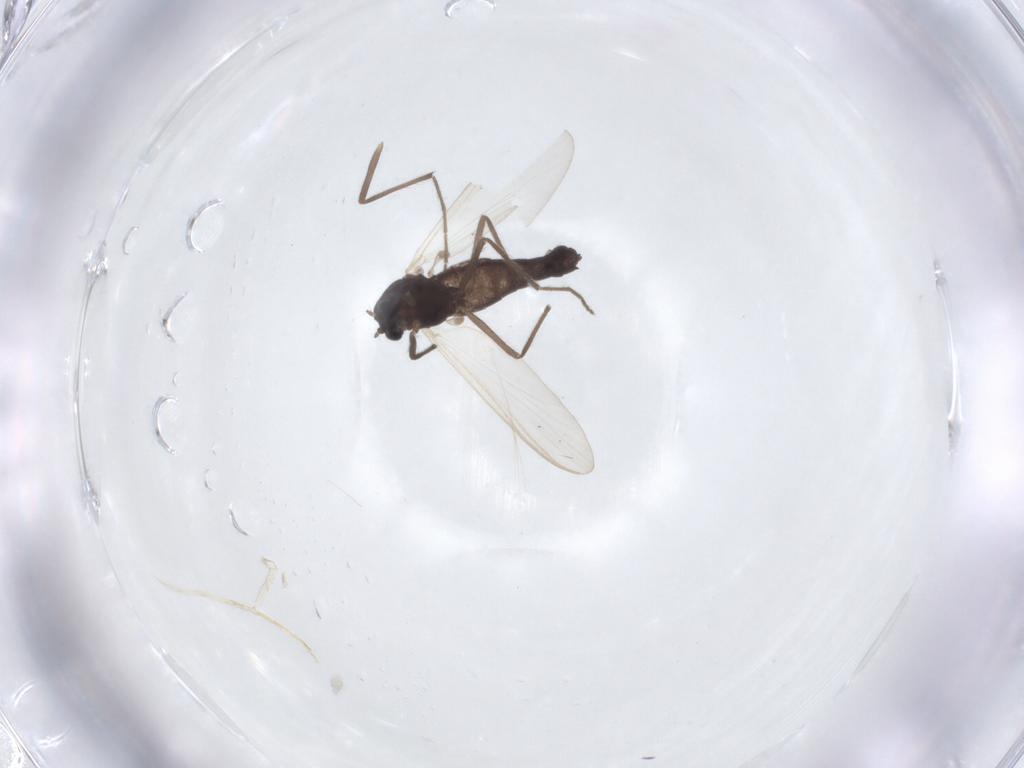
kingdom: Animalia
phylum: Arthropoda
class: Insecta
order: Diptera
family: Chironomidae
